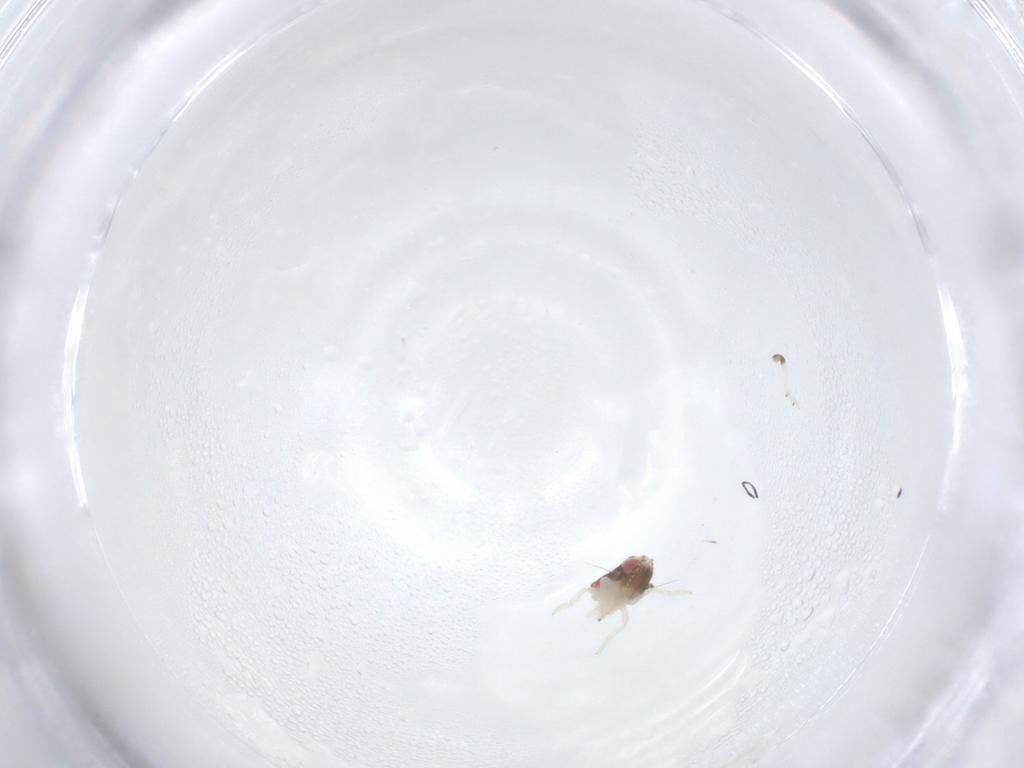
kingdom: Animalia
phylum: Arthropoda
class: Insecta
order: Hemiptera
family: Nogodinidae
